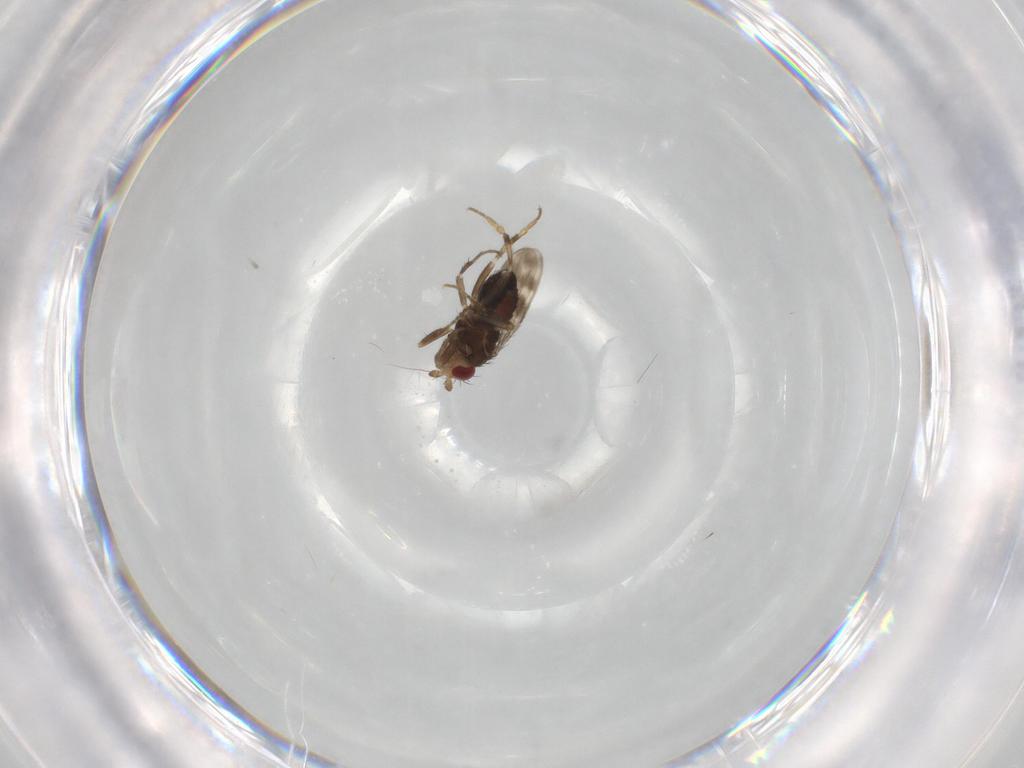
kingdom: Animalia
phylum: Arthropoda
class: Insecta
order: Diptera
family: Sphaeroceridae
